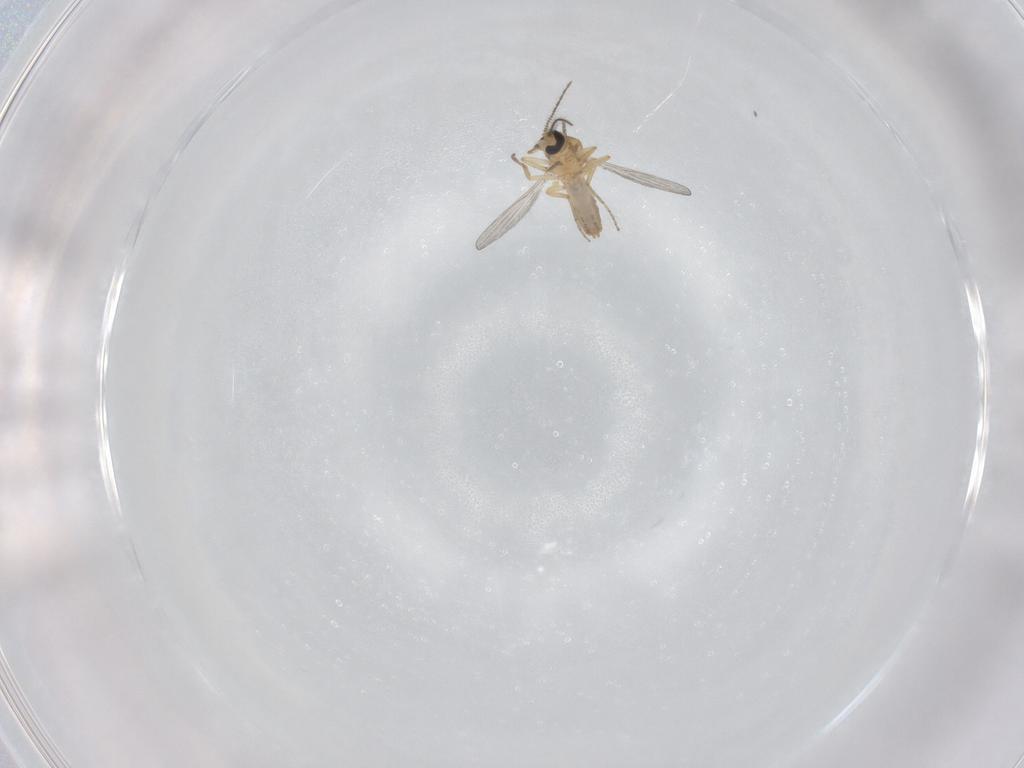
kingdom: Animalia
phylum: Arthropoda
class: Insecta
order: Diptera
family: Ceratopogonidae
